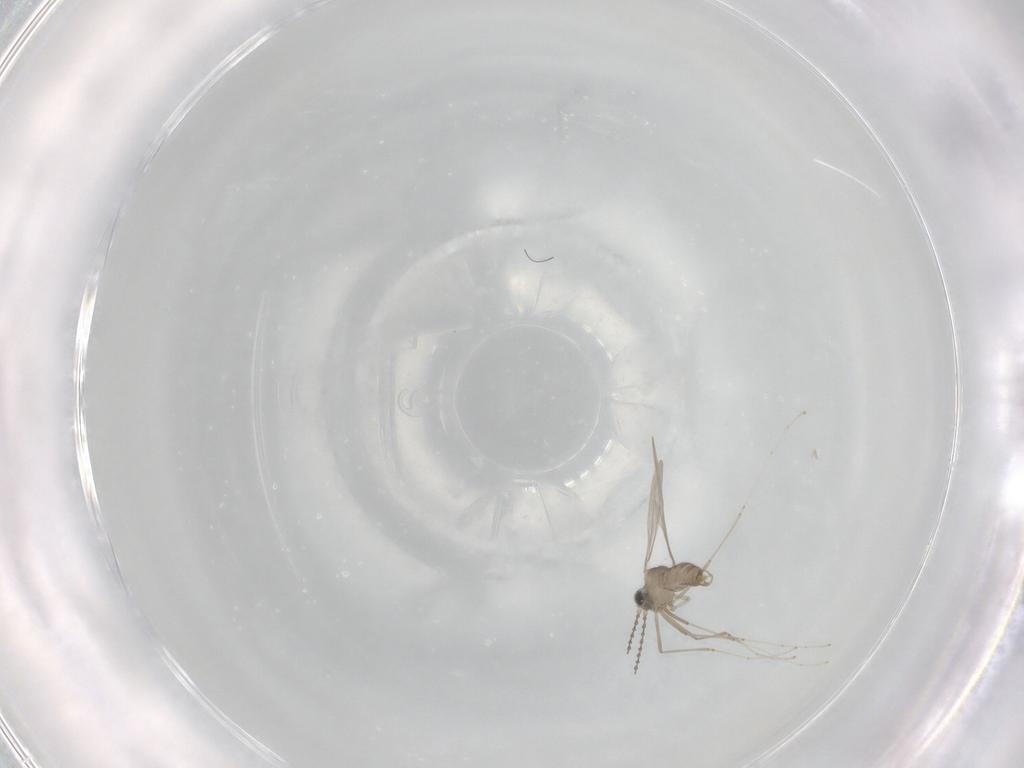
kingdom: Animalia
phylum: Arthropoda
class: Insecta
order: Diptera
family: Cecidomyiidae
